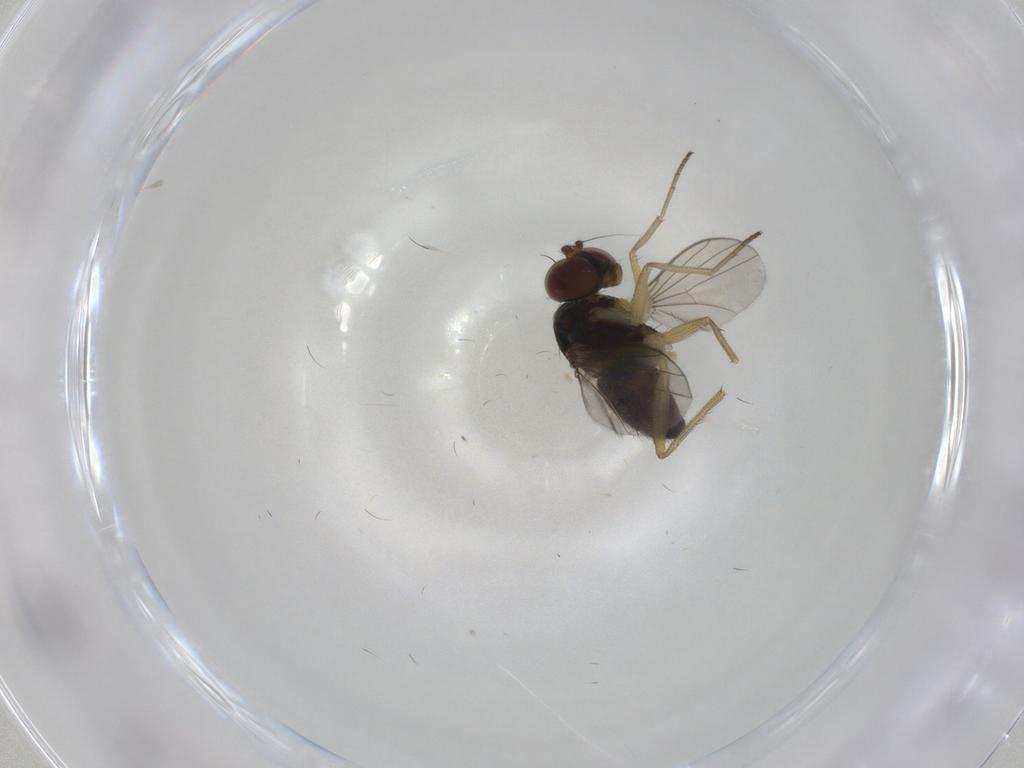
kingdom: Animalia
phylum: Arthropoda
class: Insecta
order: Diptera
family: Dolichopodidae
